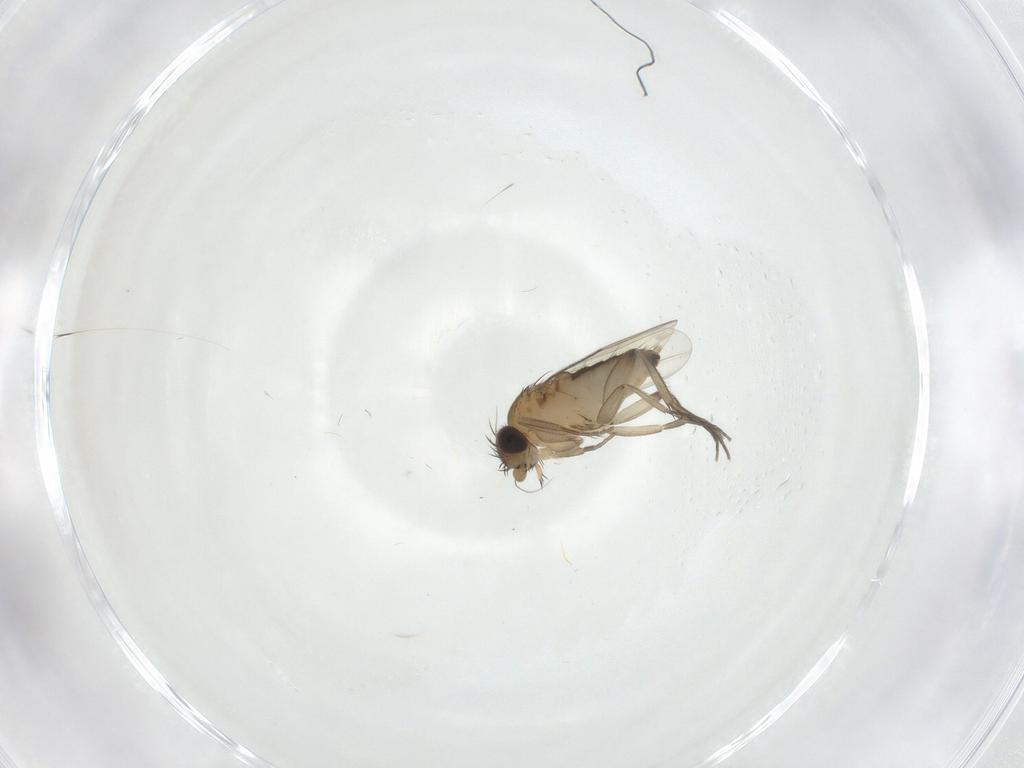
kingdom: Animalia
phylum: Arthropoda
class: Insecta
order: Diptera
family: Phoridae
